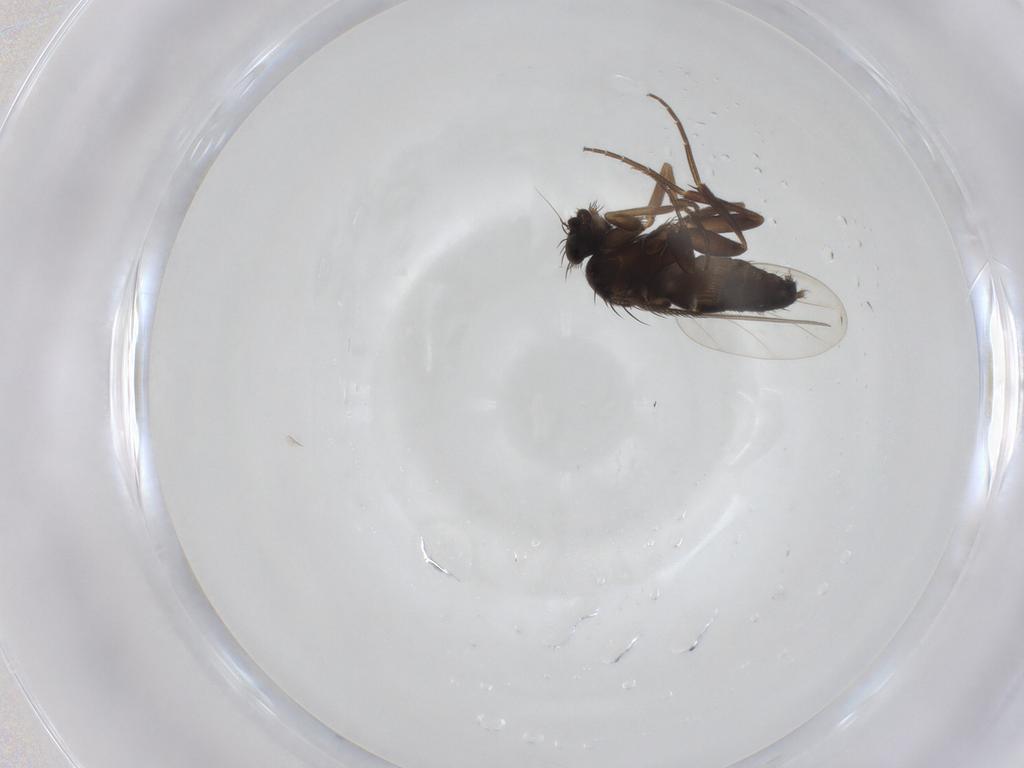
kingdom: Animalia
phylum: Arthropoda
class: Insecta
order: Diptera
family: Phoridae
